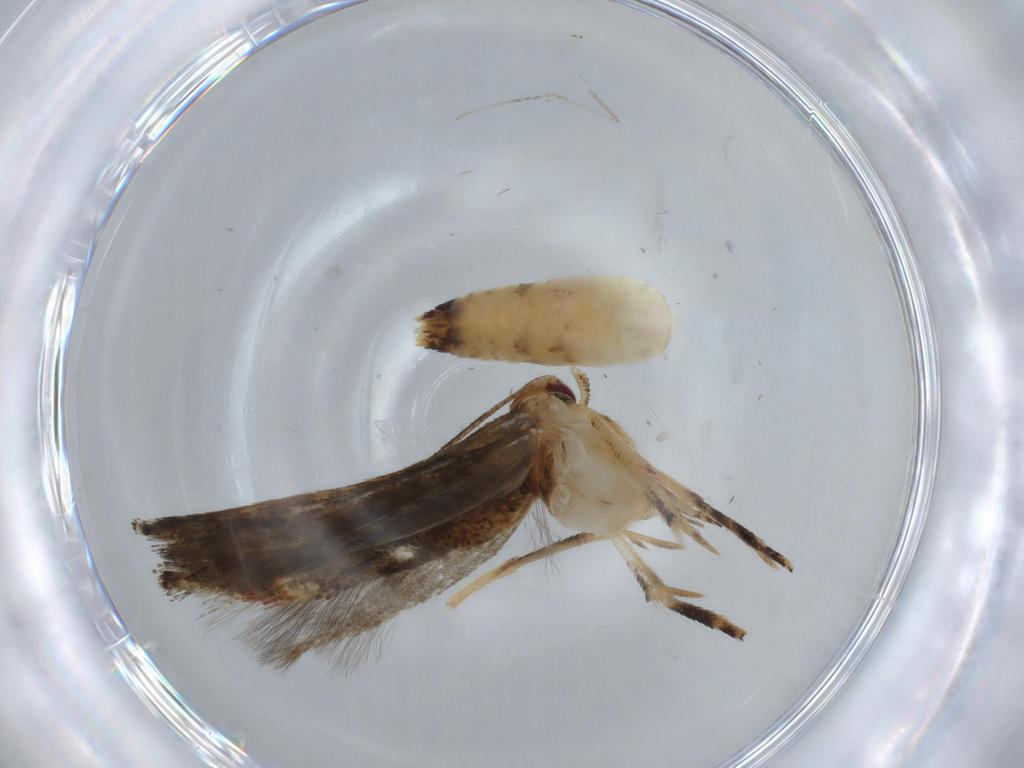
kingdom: Animalia
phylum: Arthropoda
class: Insecta
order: Lepidoptera
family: Momphidae
